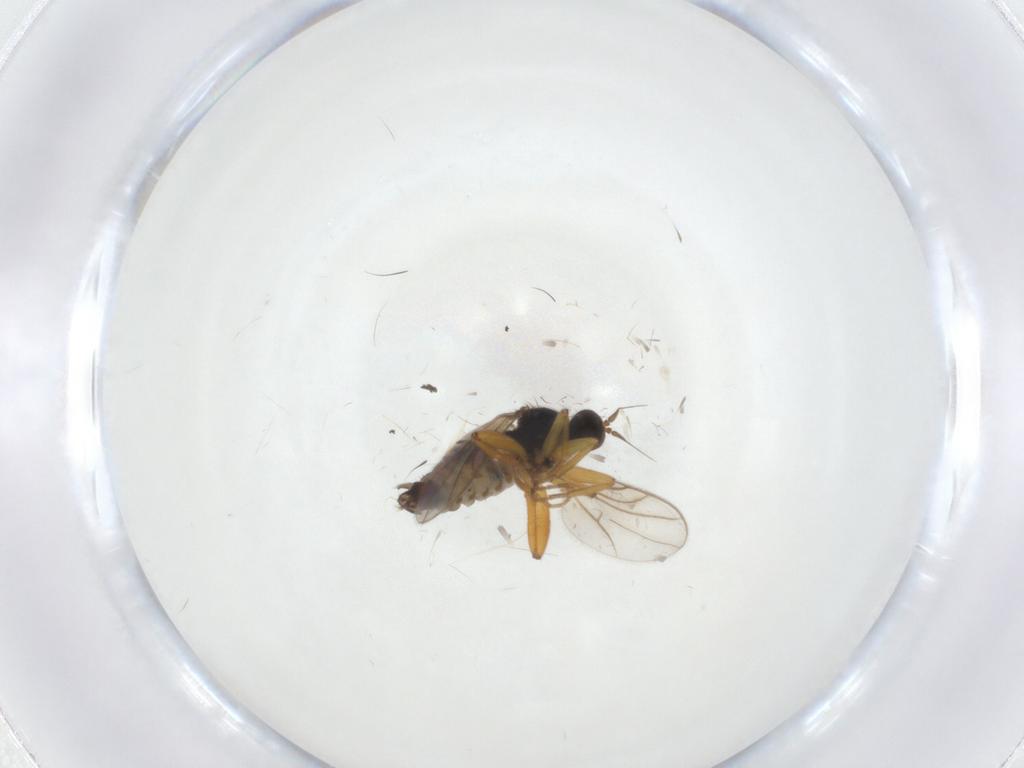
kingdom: Animalia
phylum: Arthropoda
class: Insecta
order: Diptera
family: Hybotidae
